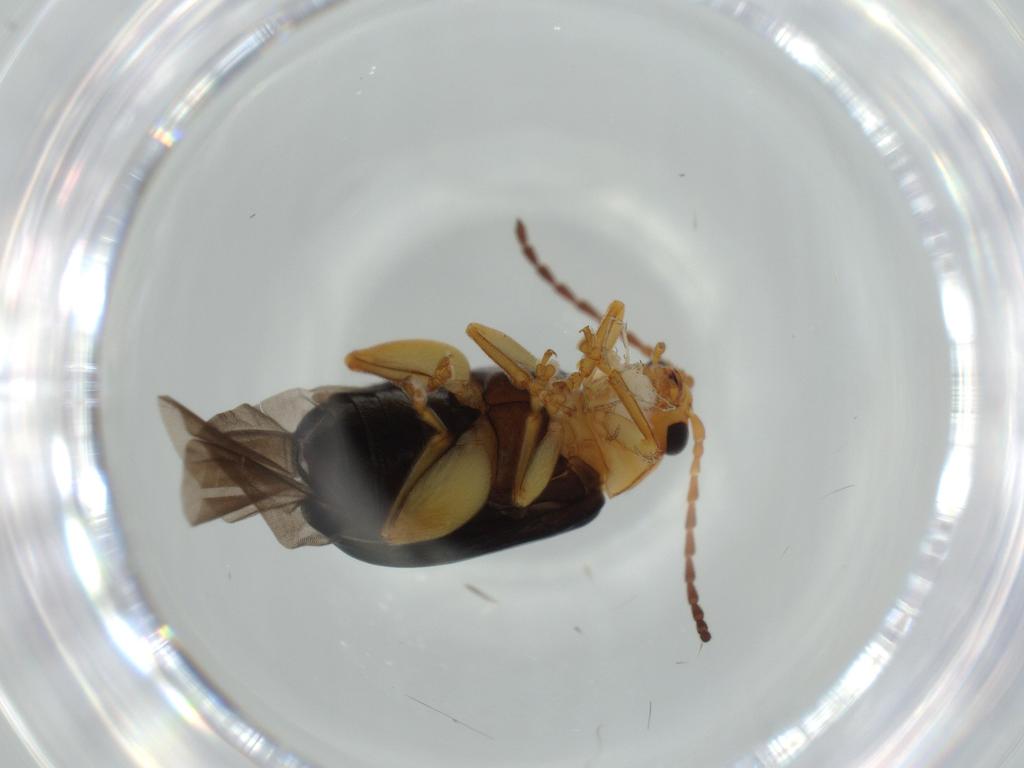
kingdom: Animalia
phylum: Arthropoda
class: Insecta
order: Coleoptera
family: Chrysomelidae
